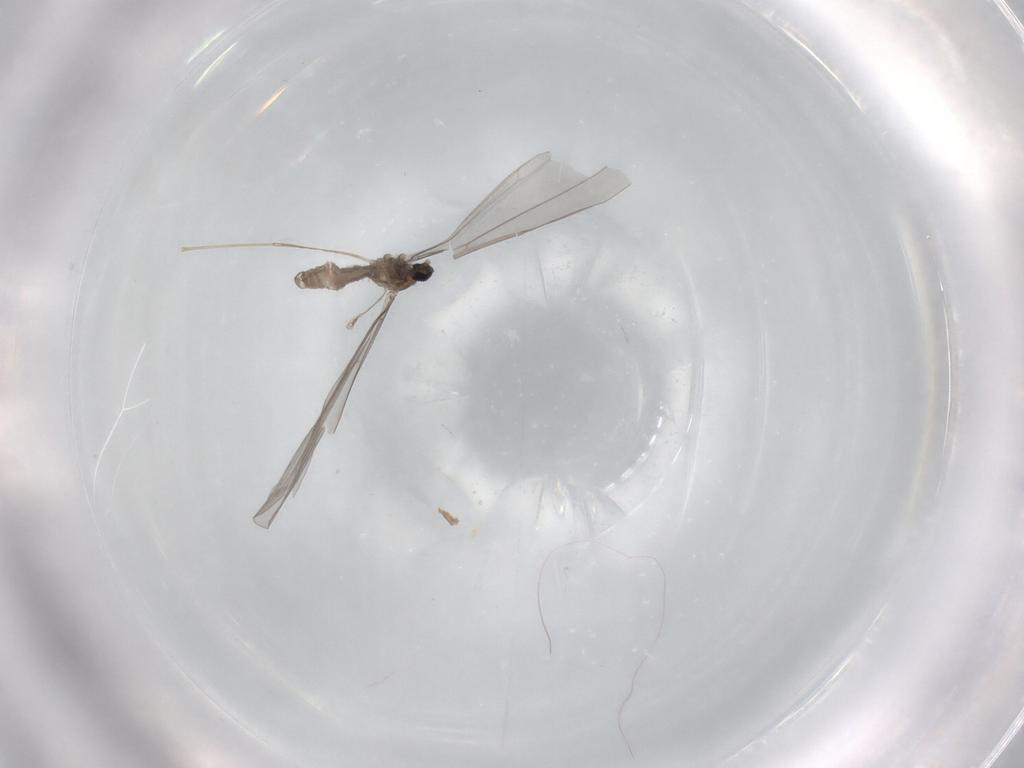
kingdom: Animalia
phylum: Arthropoda
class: Insecta
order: Diptera
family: Cecidomyiidae
